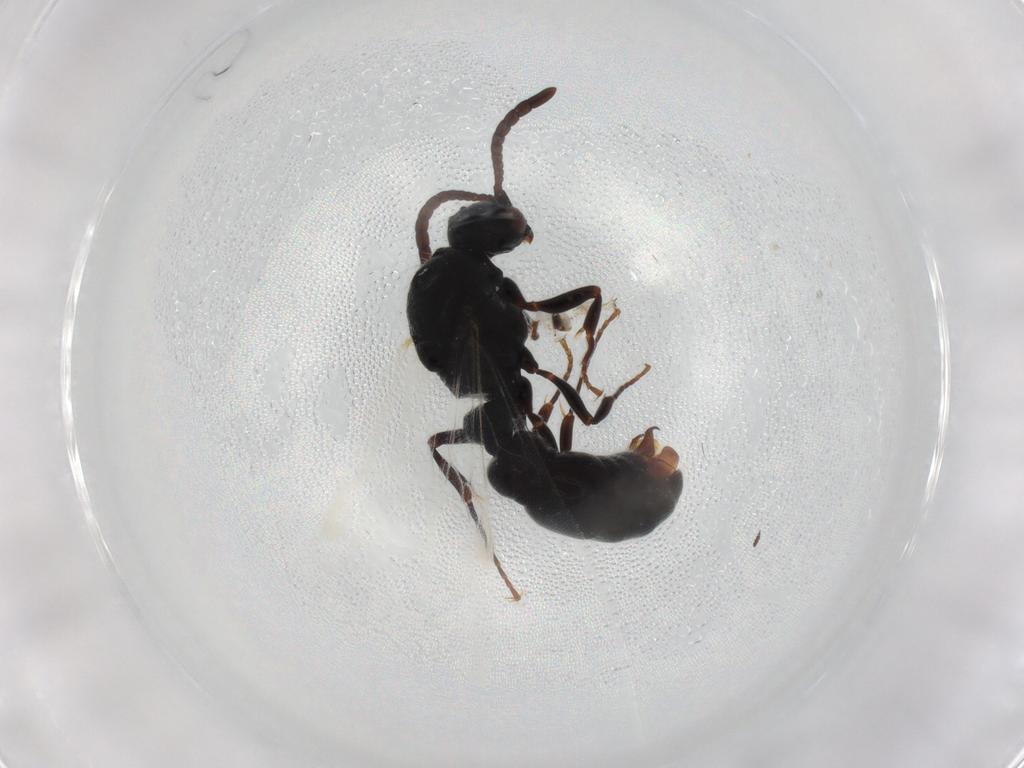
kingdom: Animalia
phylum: Arthropoda
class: Insecta
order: Hymenoptera
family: Formicidae
